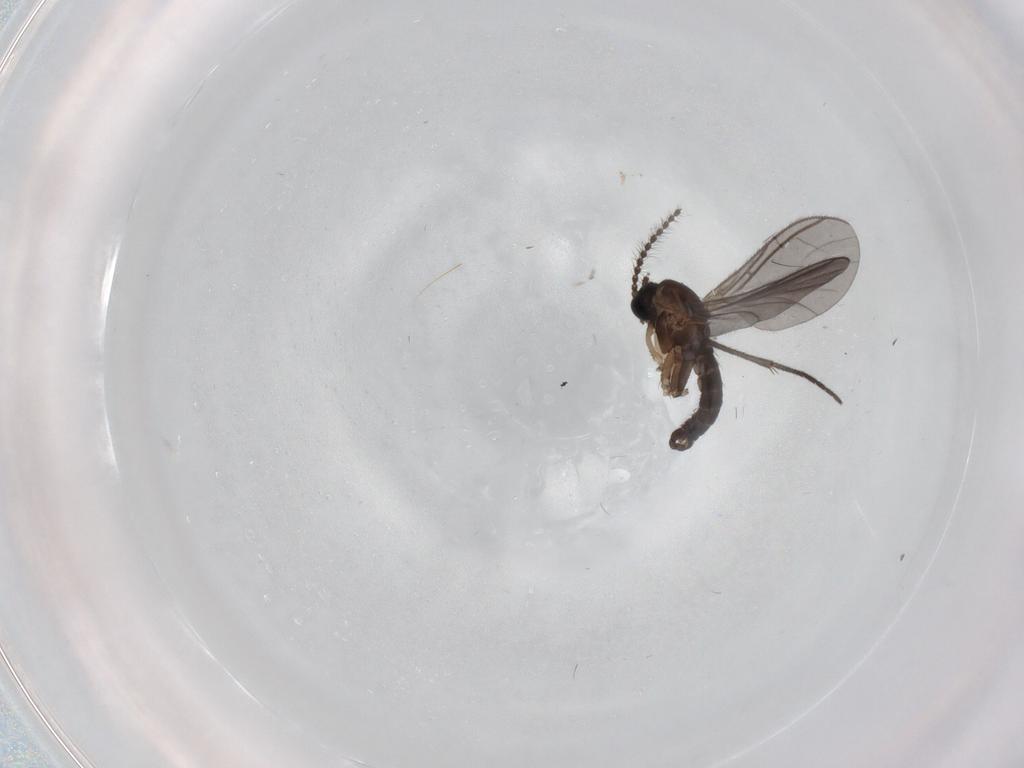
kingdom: Animalia
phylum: Arthropoda
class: Insecta
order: Diptera
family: Sciaridae
